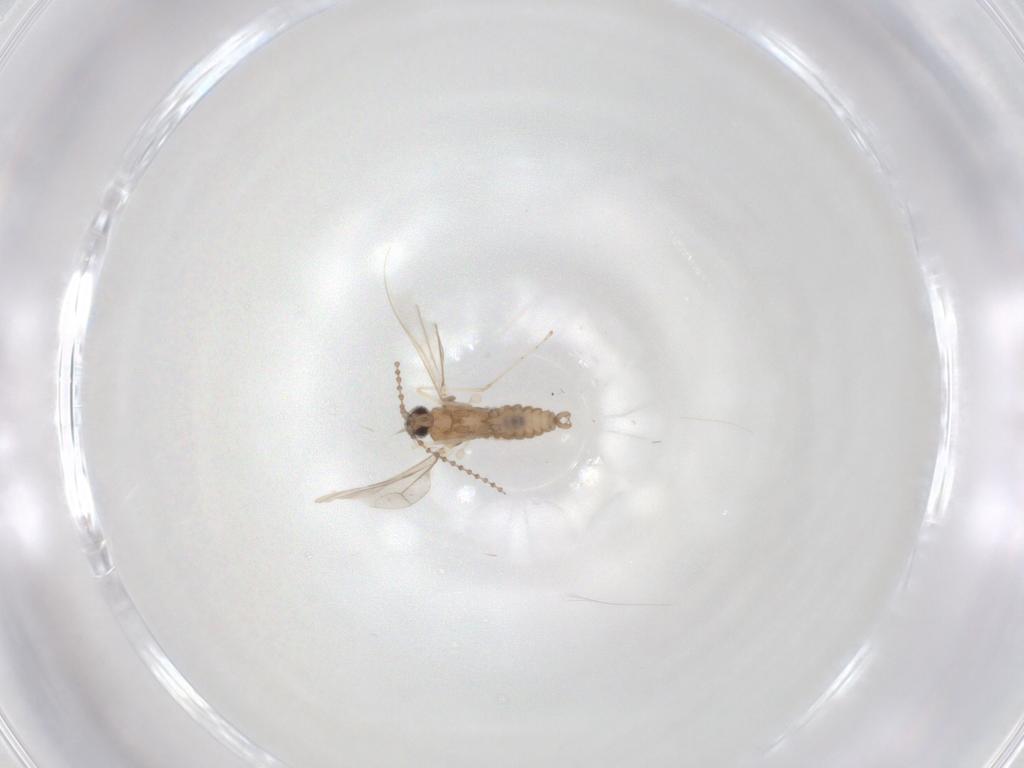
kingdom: Animalia
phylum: Arthropoda
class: Insecta
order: Diptera
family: Cecidomyiidae
